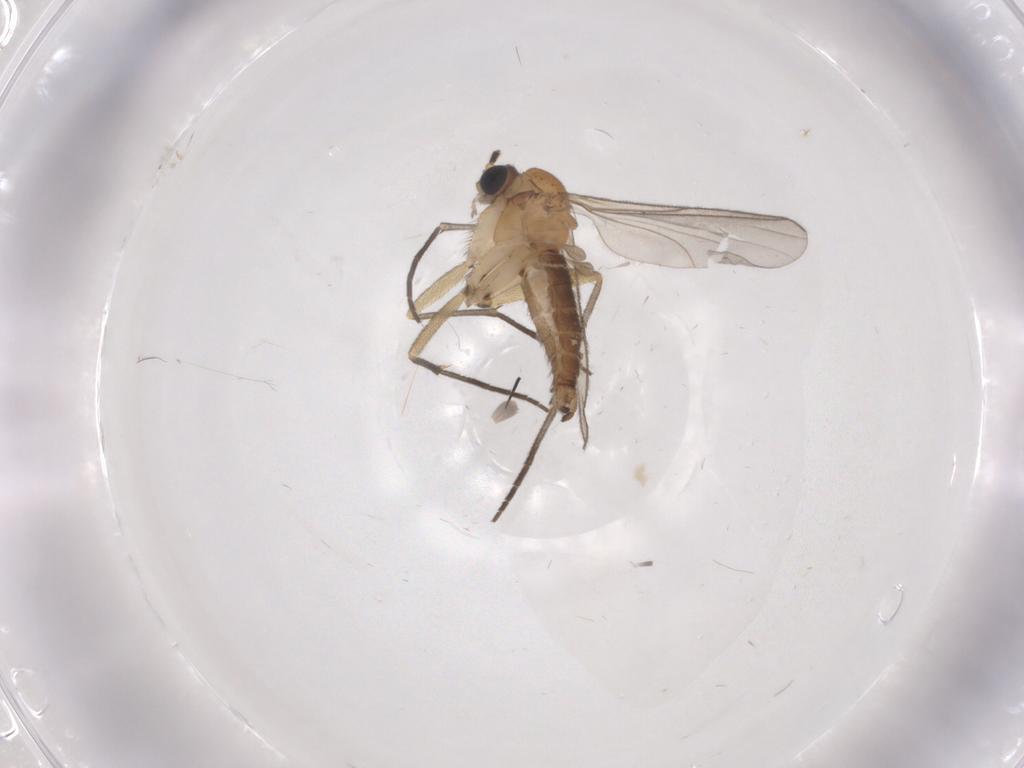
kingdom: Animalia
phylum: Arthropoda
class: Insecta
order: Diptera
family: Sciaridae
